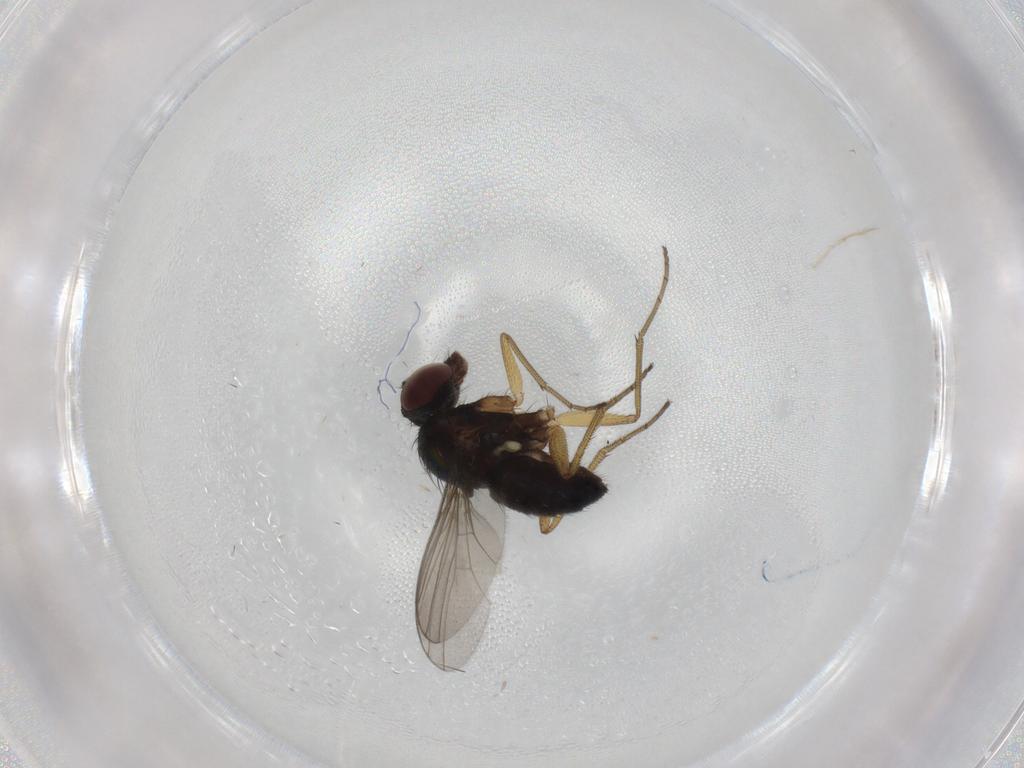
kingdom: Animalia
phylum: Arthropoda
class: Insecta
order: Diptera
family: Dolichopodidae
